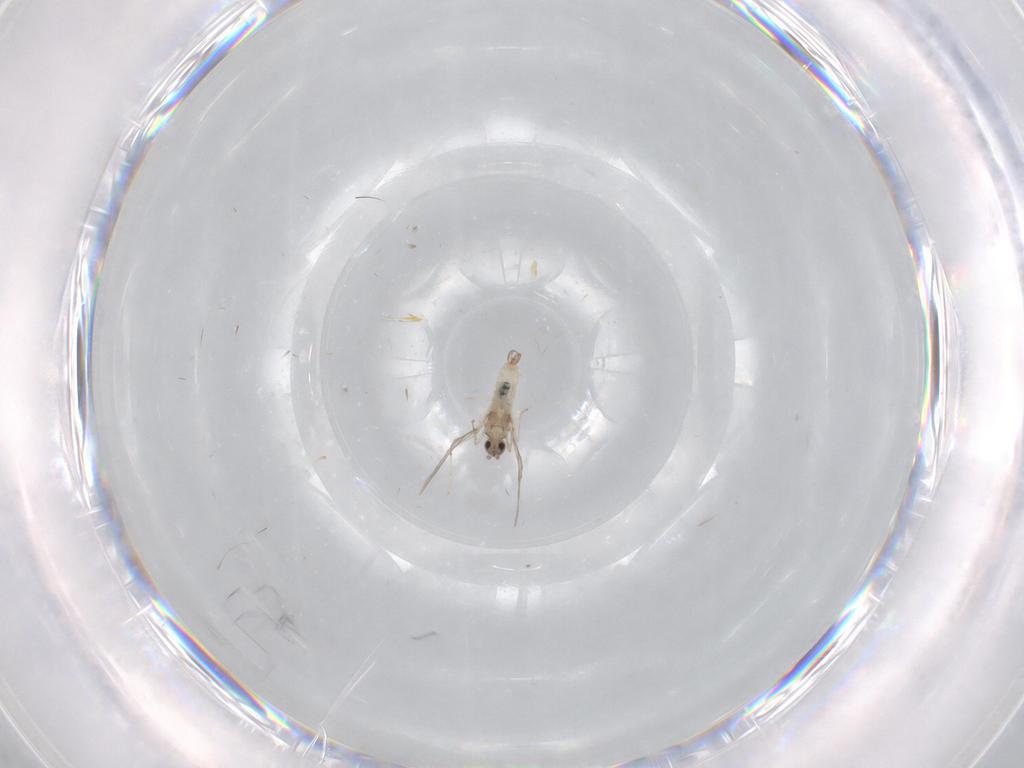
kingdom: Animalia
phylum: Arthropoda
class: Insecta
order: Diptera
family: Cecidomyiidae
